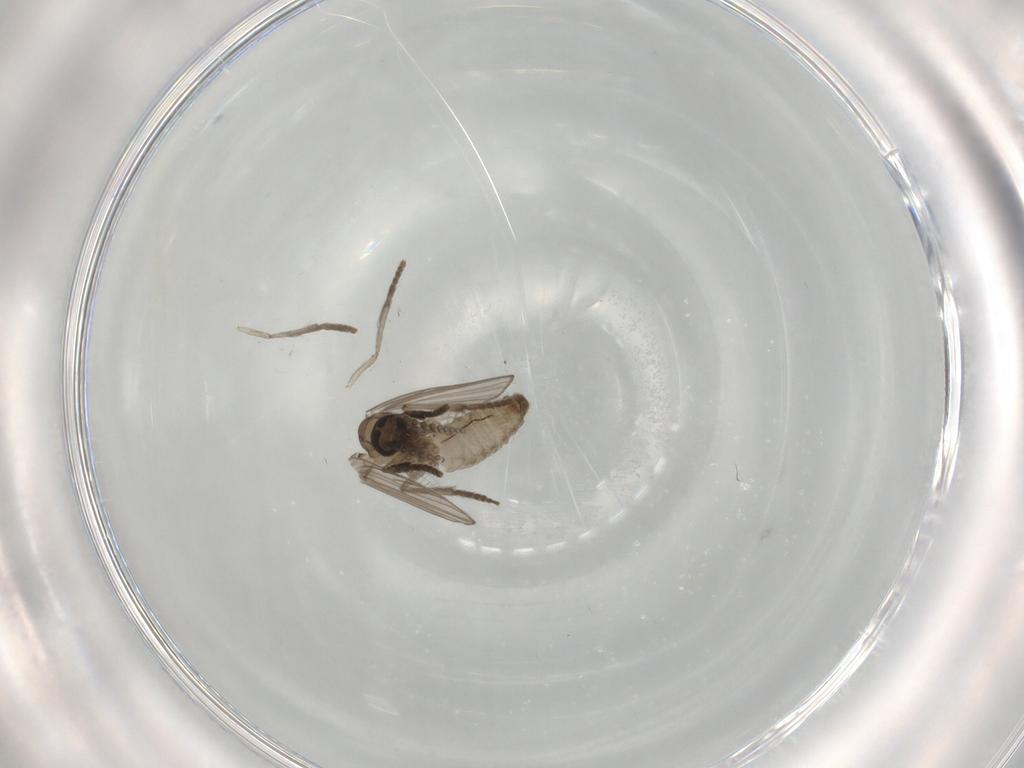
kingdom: Animalia
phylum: Arthropoda
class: Insecta
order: Diptera
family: Psychodidae
